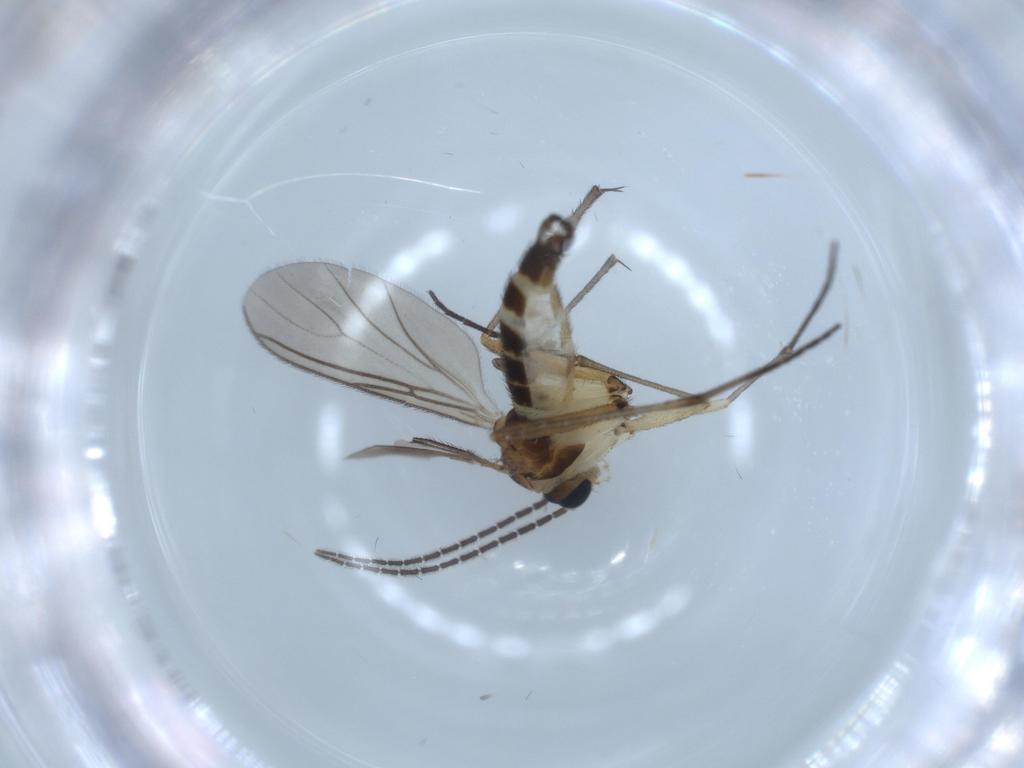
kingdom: Animalia
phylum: Arthropoda
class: Insecta
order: Diptera
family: Sciaridae
